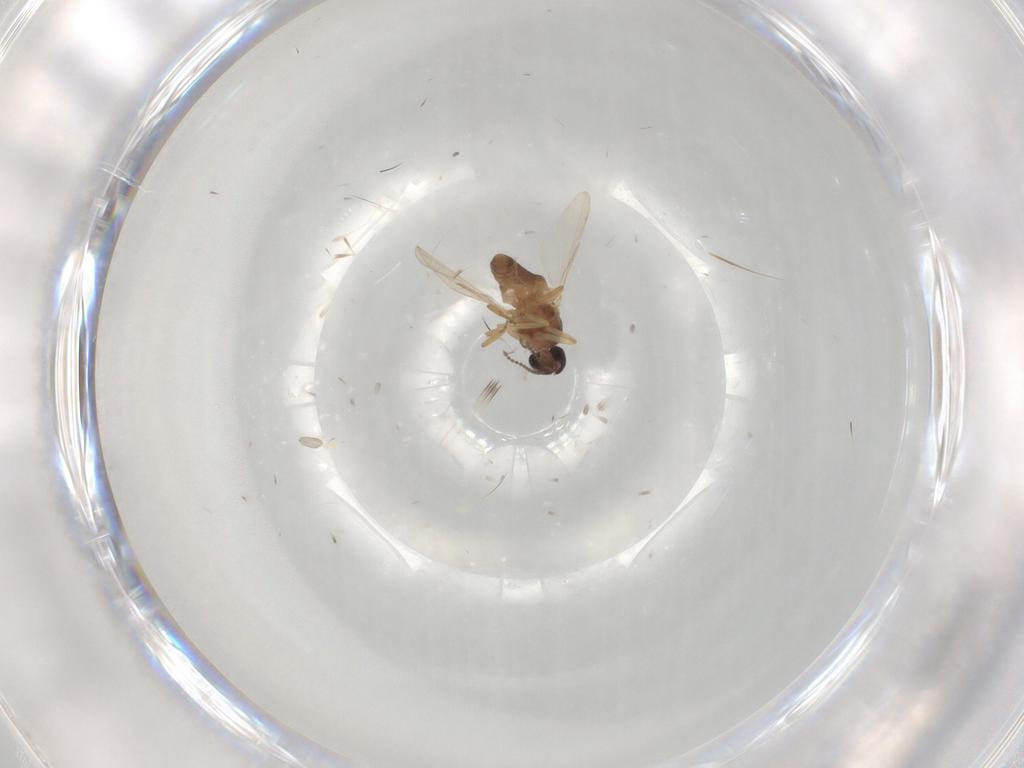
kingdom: Animalia
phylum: Arthropoda
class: Insecta
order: Diptera
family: Ceratopogonidae
